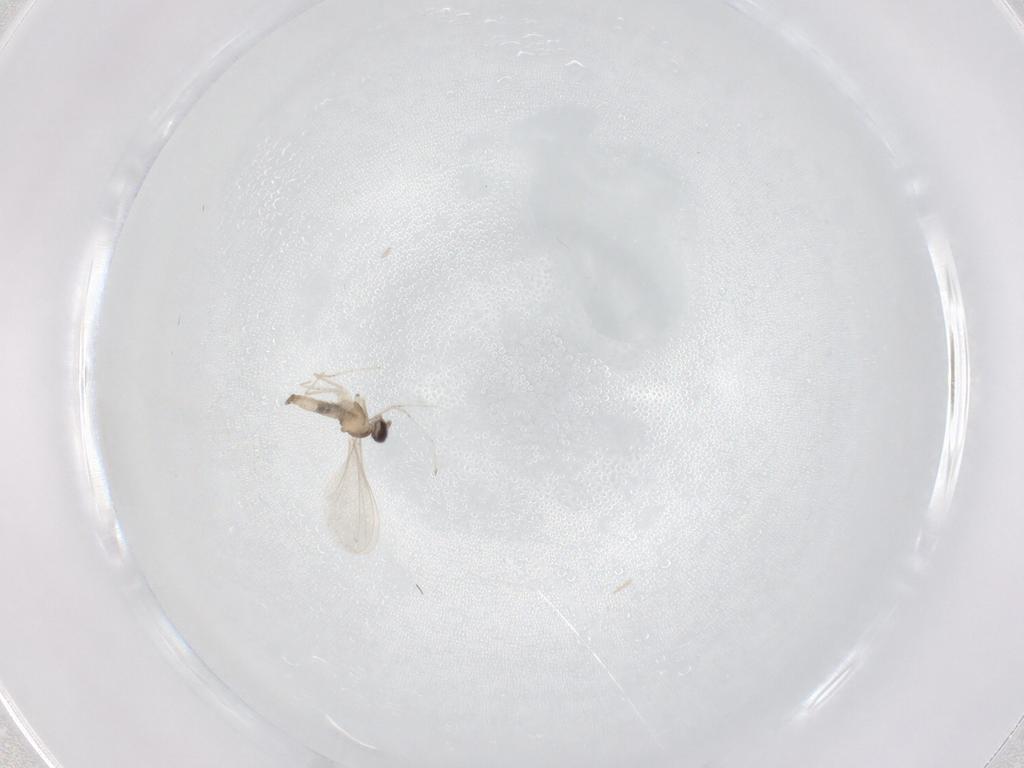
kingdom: Animalia
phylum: Arthropoda
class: Insecta
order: Diptera
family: Cecidomyiidae
